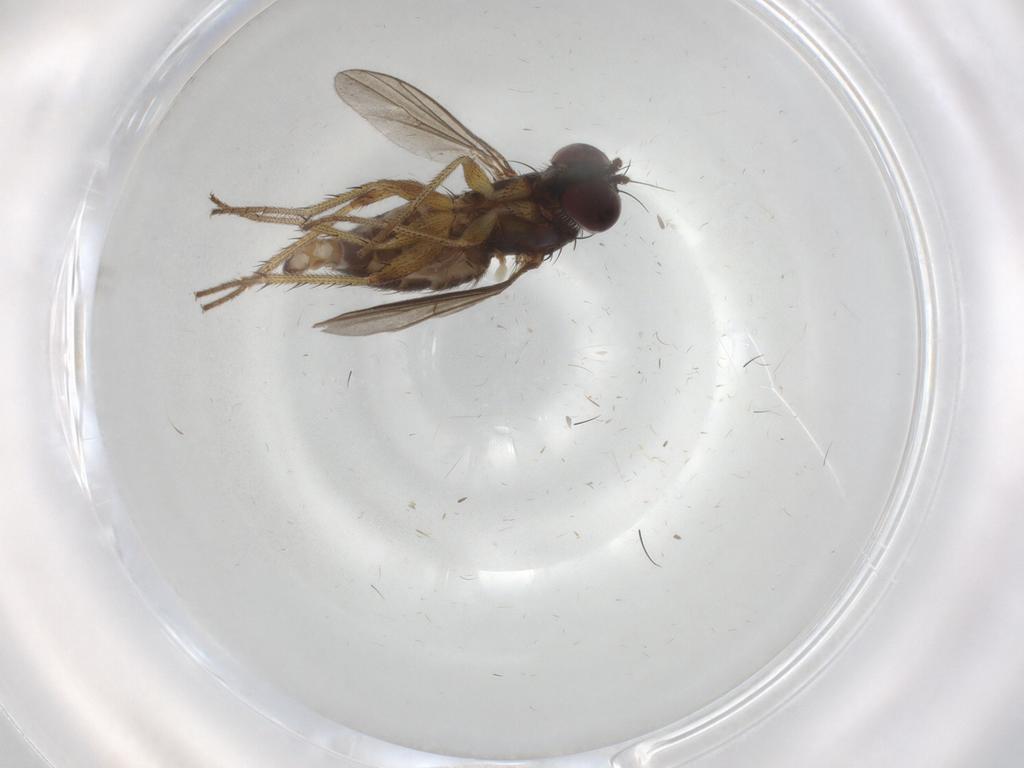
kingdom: Animalia
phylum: Arthropoda
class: Insecta
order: Diptera
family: Dolichopodidae
